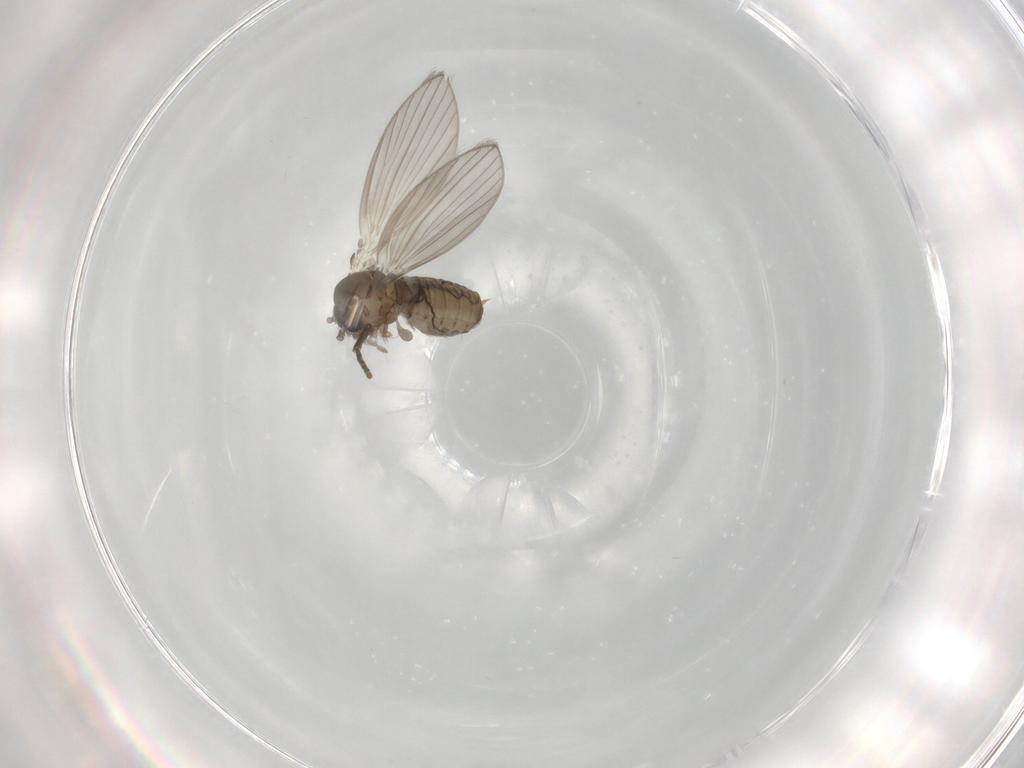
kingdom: Animalia
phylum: Arthropoda
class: Insecta
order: Diptera
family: Psychodidae
